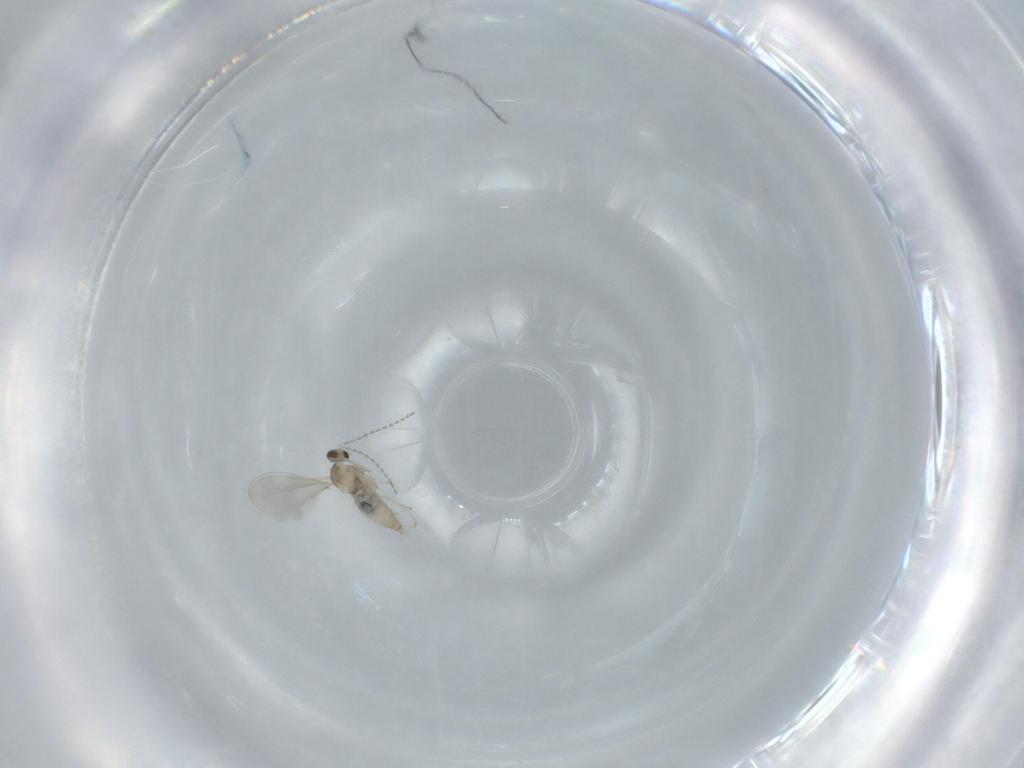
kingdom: Animalia
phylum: Arthropoda
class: Insecta
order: Diptera
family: Cecidomyiidae
